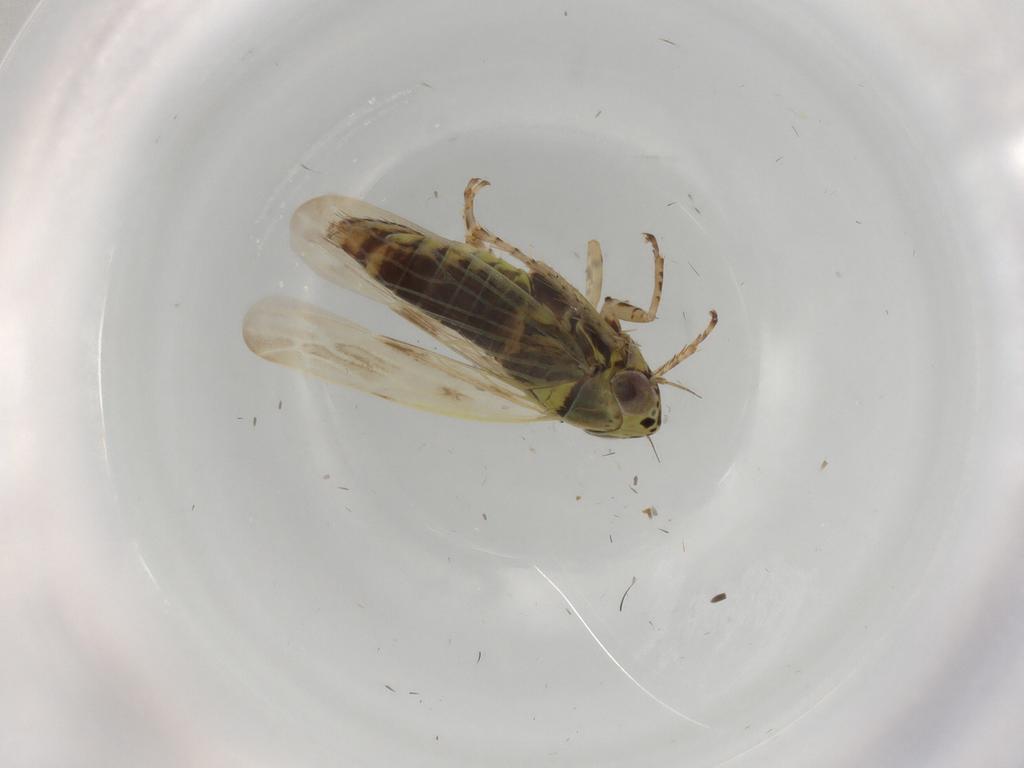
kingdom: Animalia
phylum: Arthropoda
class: Insecta
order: Hemiptera
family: Cicadellidae
